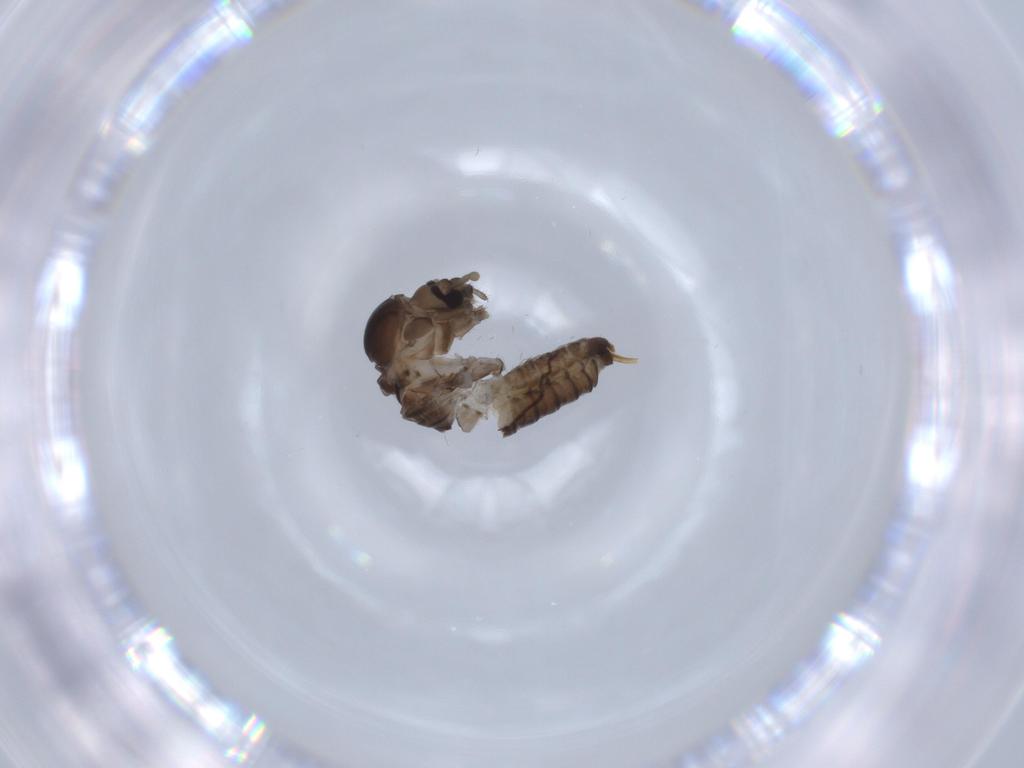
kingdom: Animalia
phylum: Arthropoda
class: Insecta
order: Diptera
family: Psychodidae
